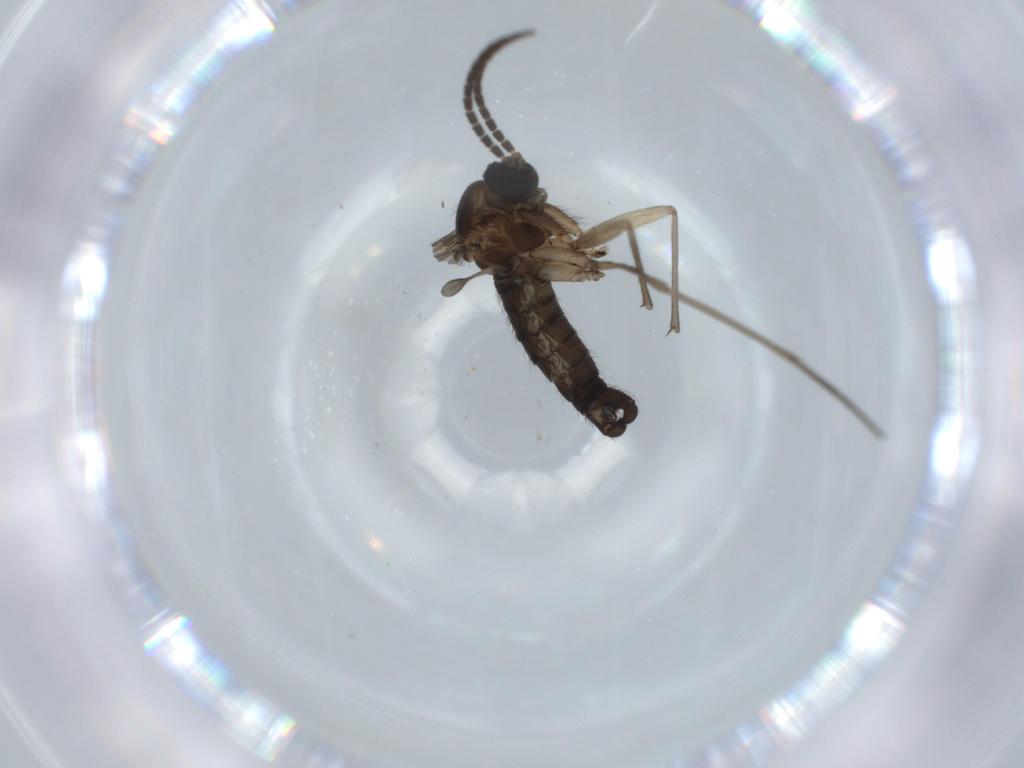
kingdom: Animalia
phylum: Arthropoda
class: Insecta
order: Diptera
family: Sciaridae
